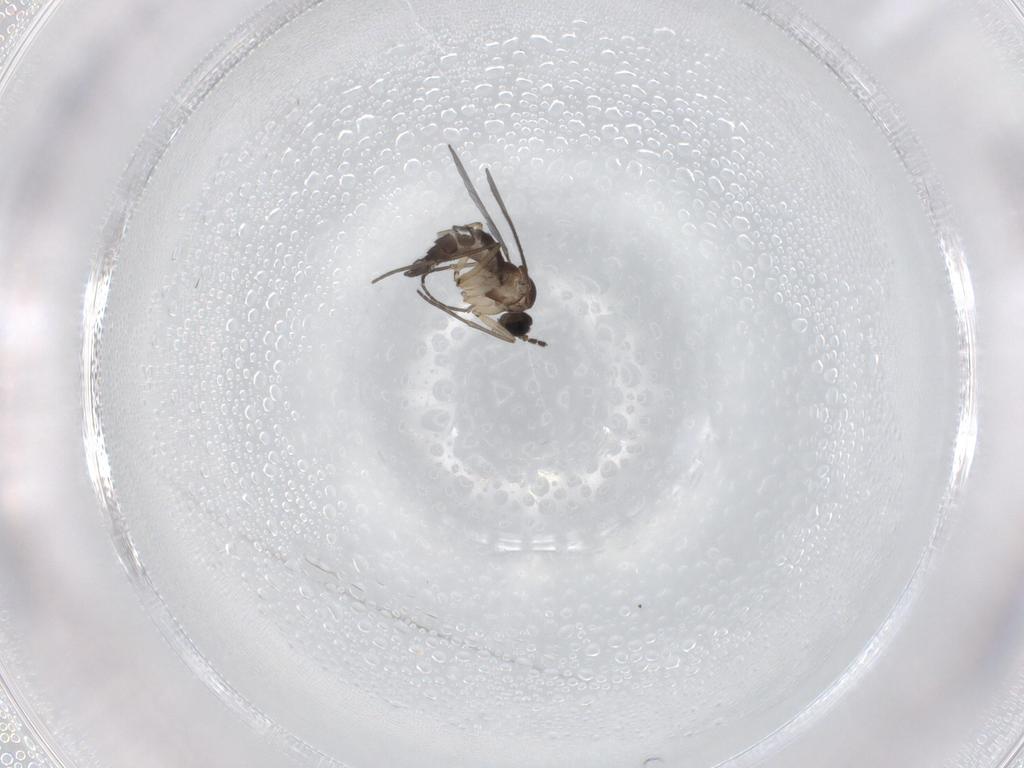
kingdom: Animalia
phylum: Arthropoda
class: Insecta
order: Diptera
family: Sciaridae
